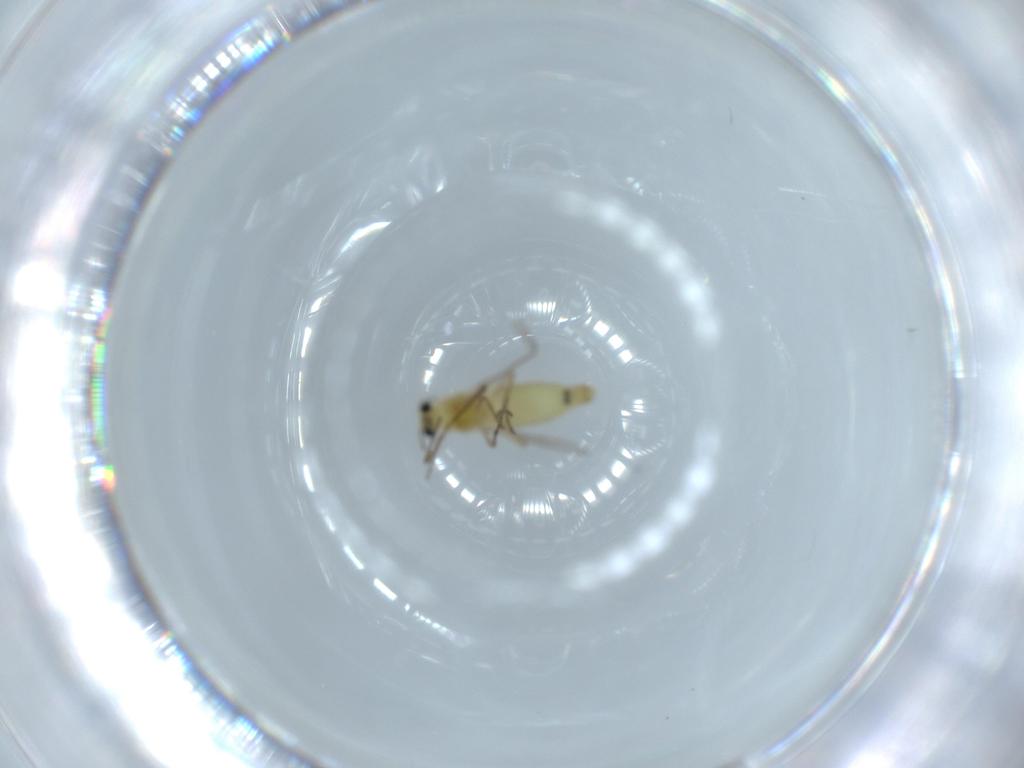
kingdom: Animalia
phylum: Arthropoda
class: Insecta
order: Diptera
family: Chironomidae
